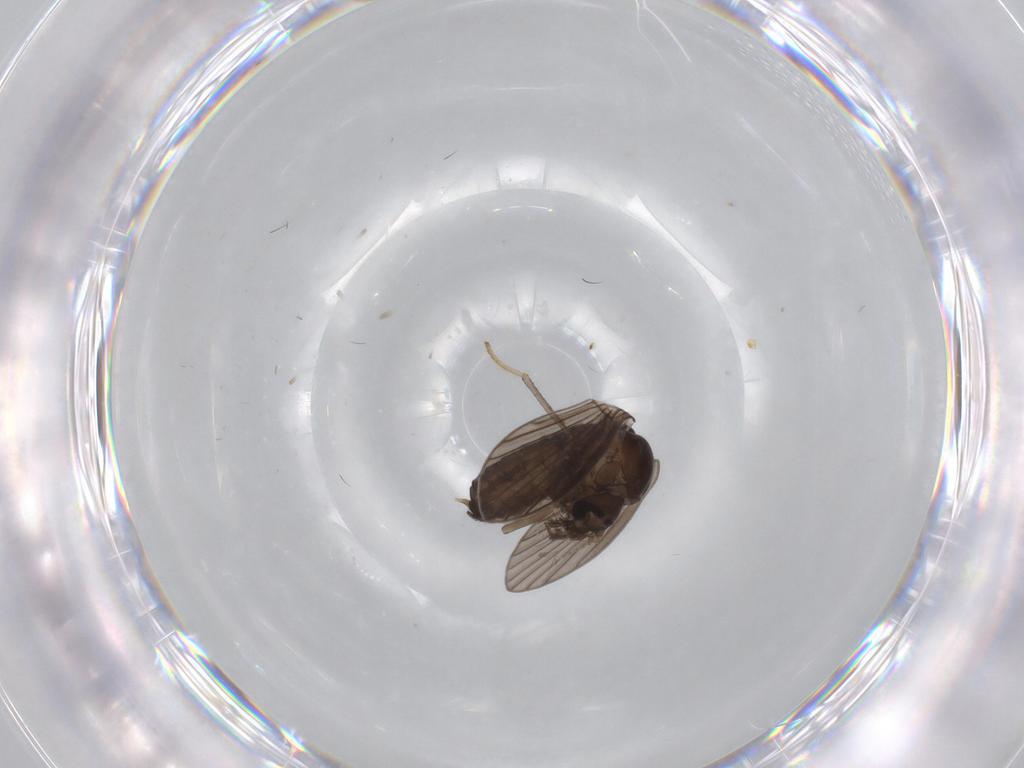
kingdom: Animalia
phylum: Arthropoda
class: Insecta
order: Diptera
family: Psychodidae
